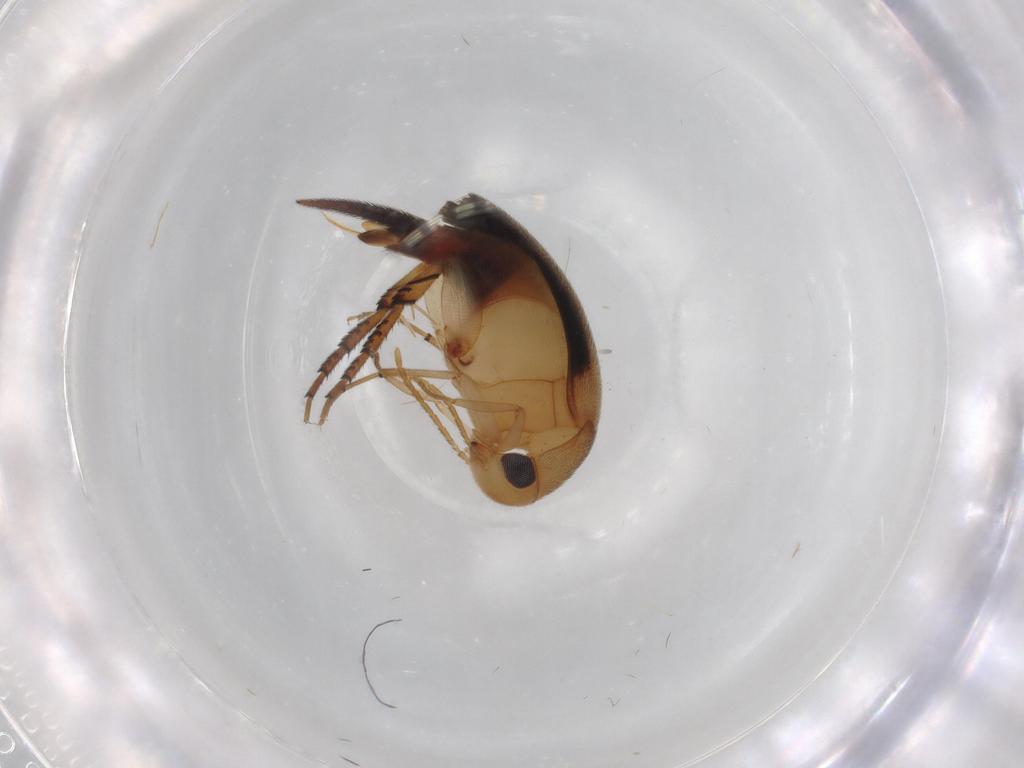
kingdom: Animalia
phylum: Arthropoda
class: Insecta
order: Coleoptera
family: Mordellidae
